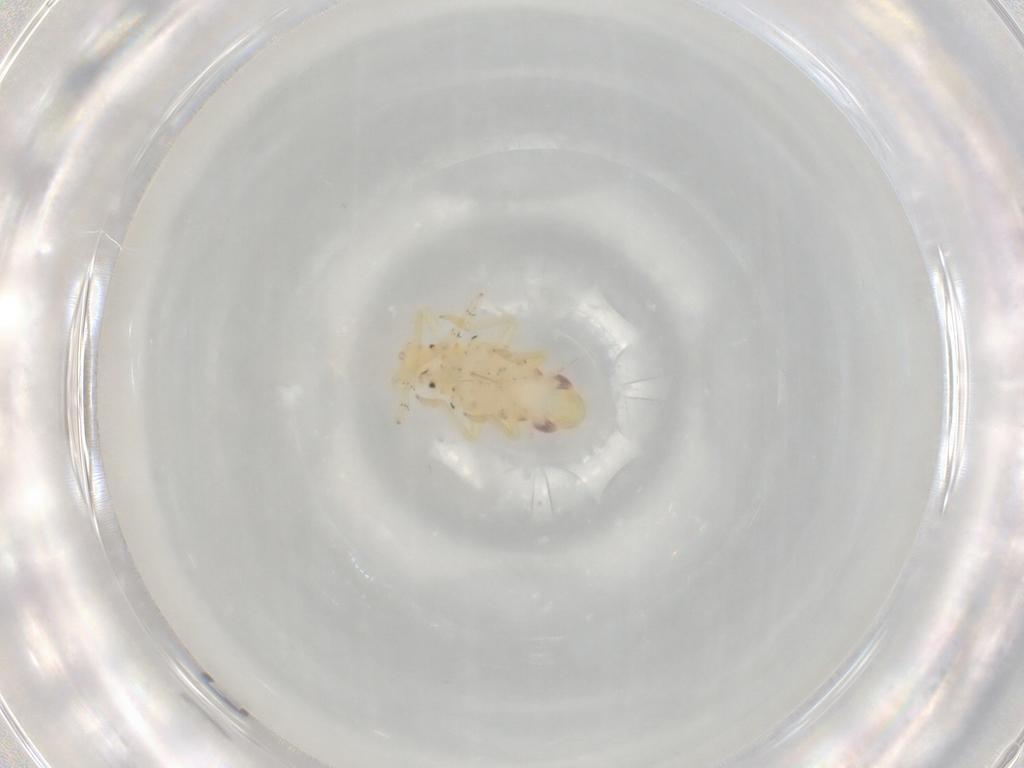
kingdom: Animalia
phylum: Arthropoda
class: Insecta
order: Hemiptera
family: Tropiduchidae
